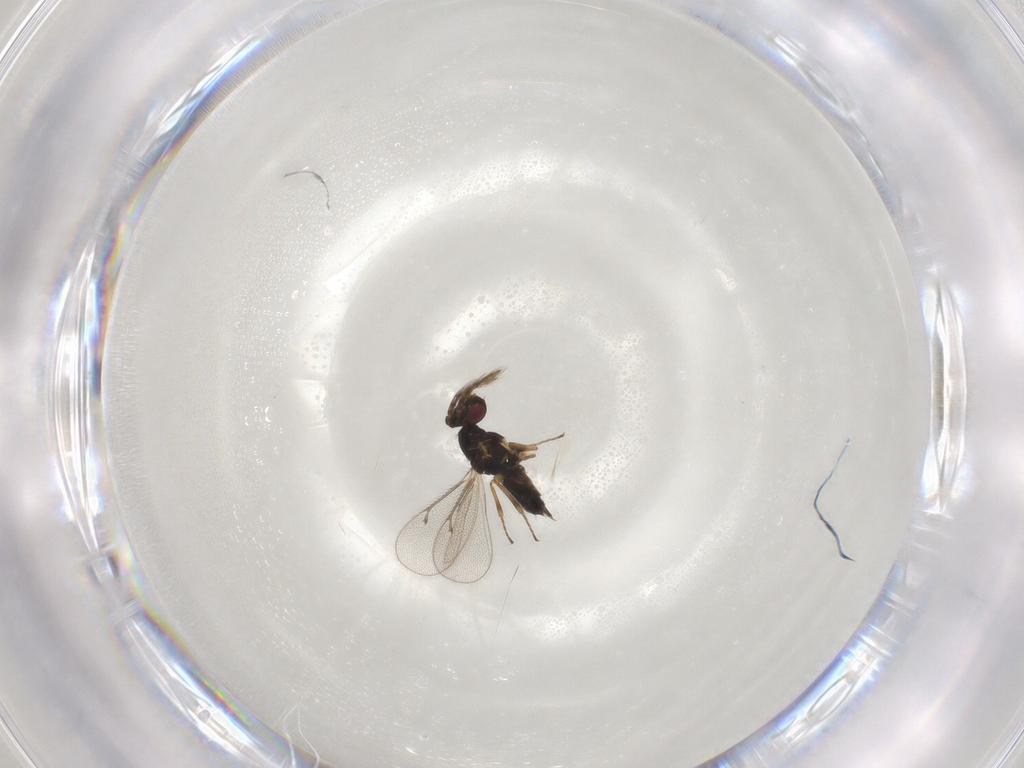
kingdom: Animalia
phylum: Arthropoda
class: Insecta
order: Hymenoptera
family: Eulophidae
